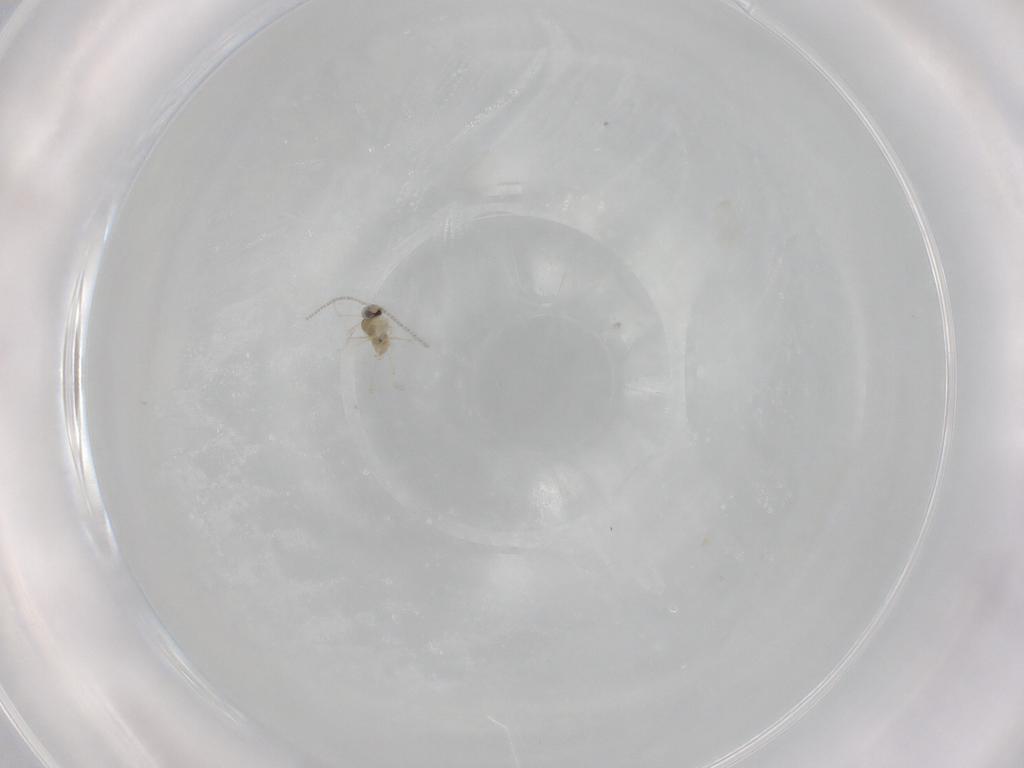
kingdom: Animalia
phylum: Arthropoda
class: Insecta
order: Diptera
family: Cecidomyiidae
